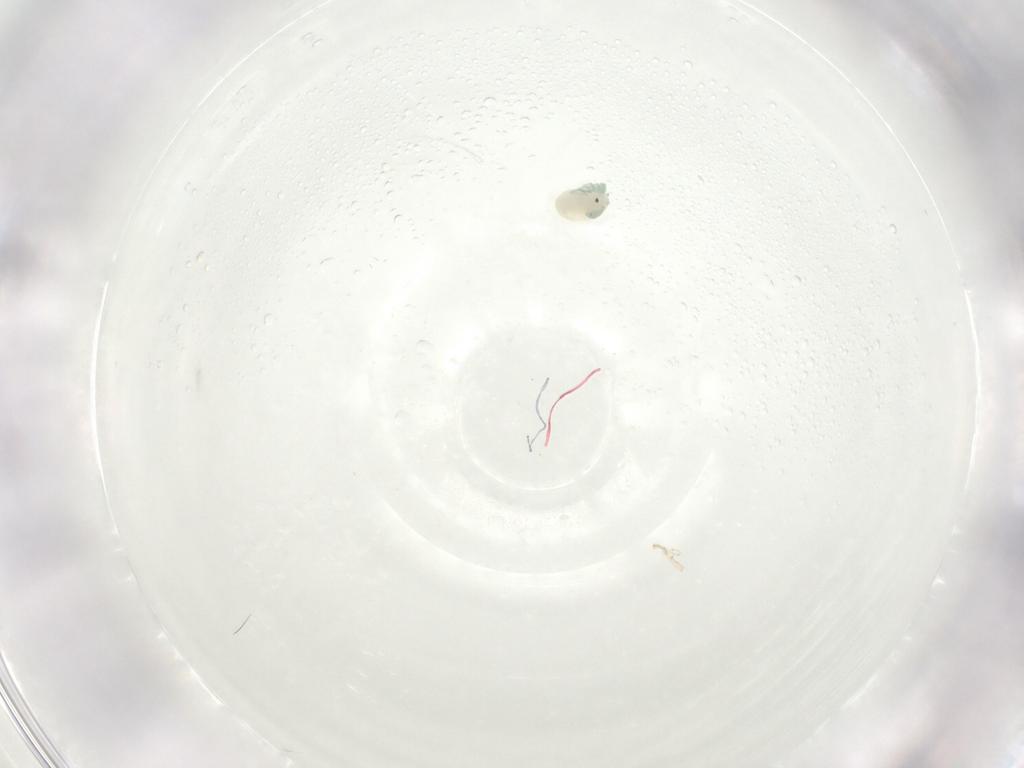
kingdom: Animalia
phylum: Arthropoda
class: Arachnida
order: Trombidiformes
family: Arrenuridae
